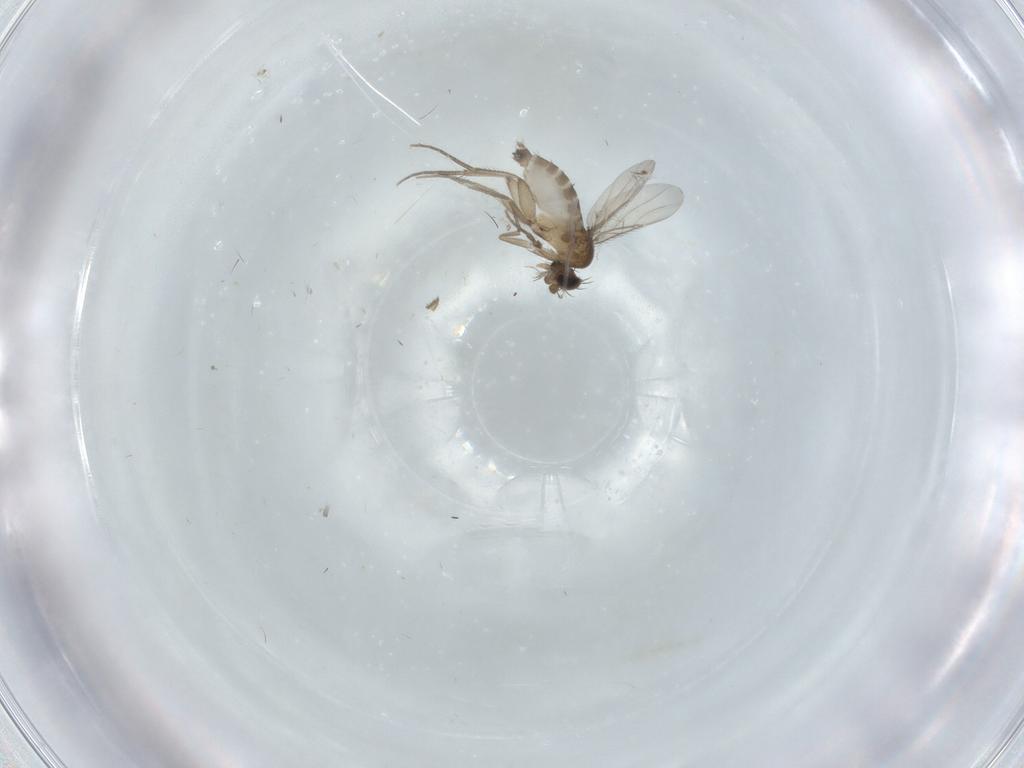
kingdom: Animalia
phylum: Arthropoda
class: Insecta
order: Diptera
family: Phoridae
